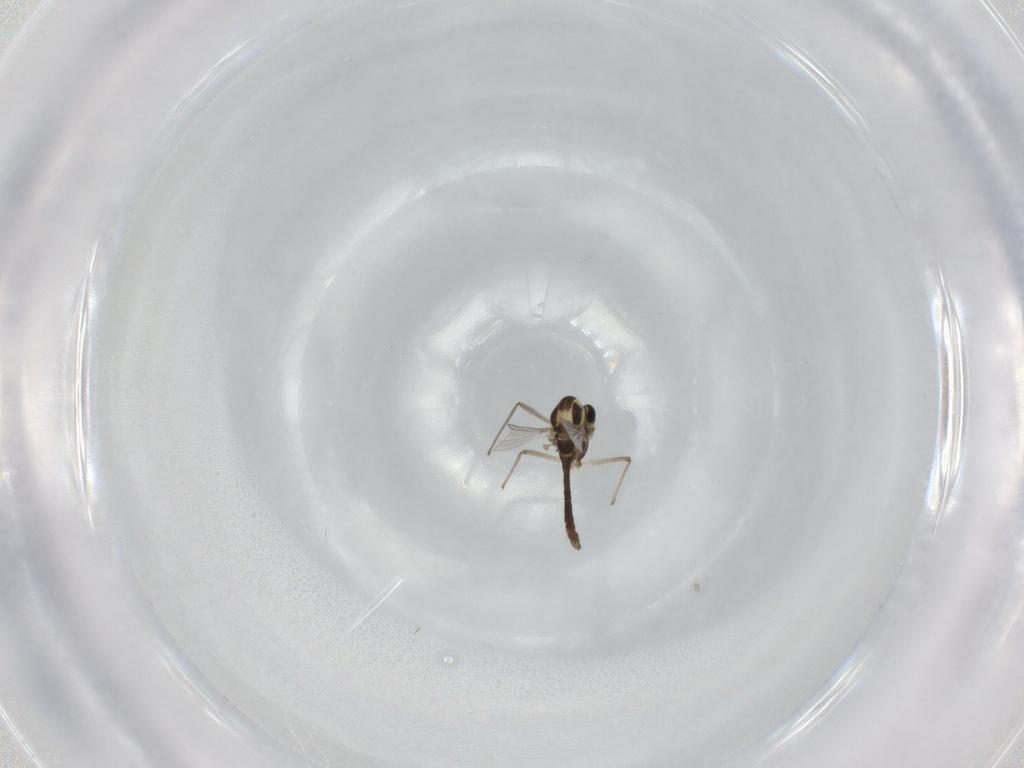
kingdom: Animalia
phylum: Arthropoda
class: Insecta
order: Diptera
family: Chironomidae
